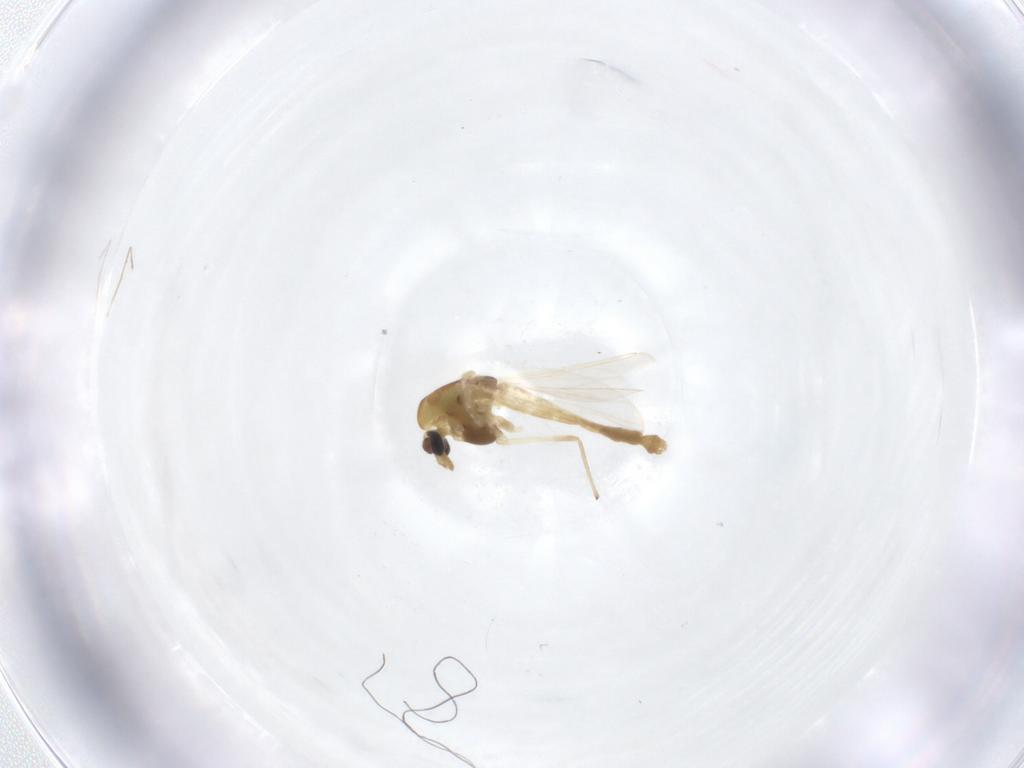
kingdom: Animalia
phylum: Arthropoda
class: Insecta
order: Diptera
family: Chironomidae
